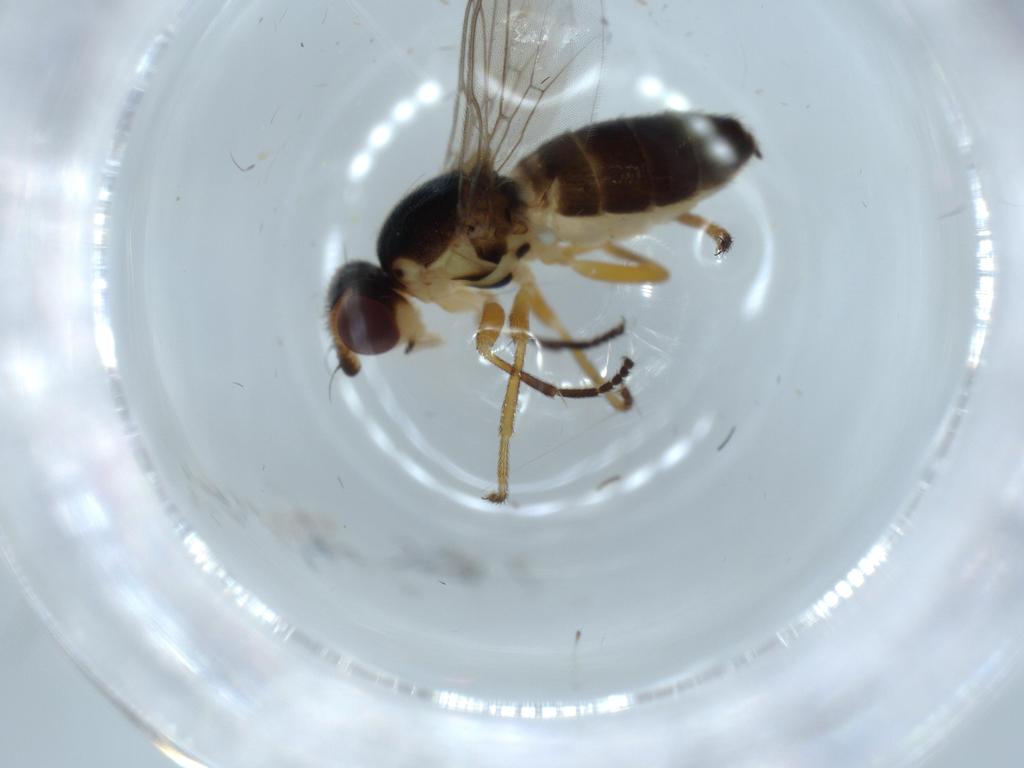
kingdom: Animalia
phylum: Arthropoda
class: Insecta
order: Diptera
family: Chloropidae
